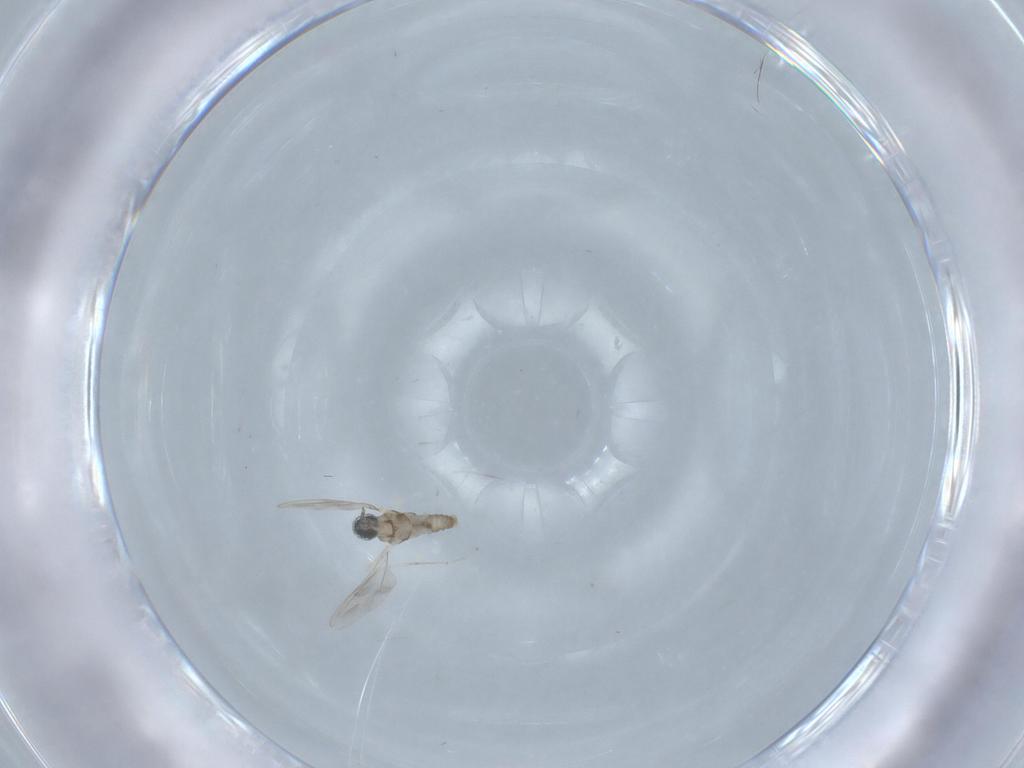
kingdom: Animalia
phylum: Arthropoda
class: Insecta
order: Diptera
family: Cecidomyiidae
